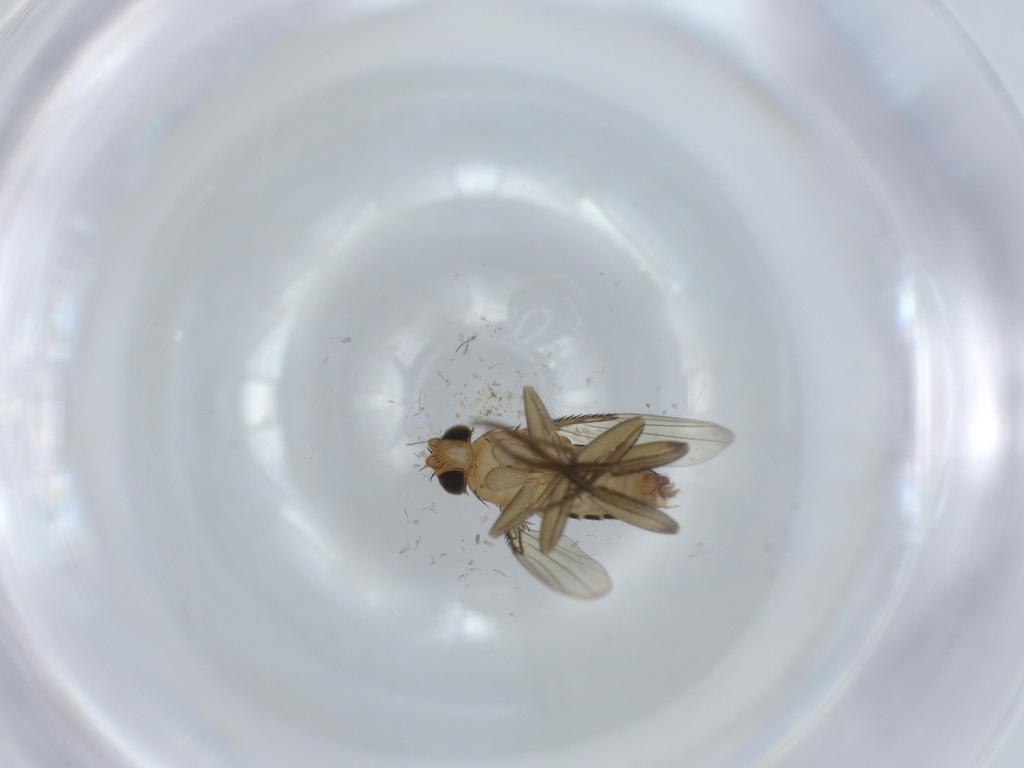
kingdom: Animalia
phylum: Arthropoda
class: Insecta
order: Diptera
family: Phoridae
